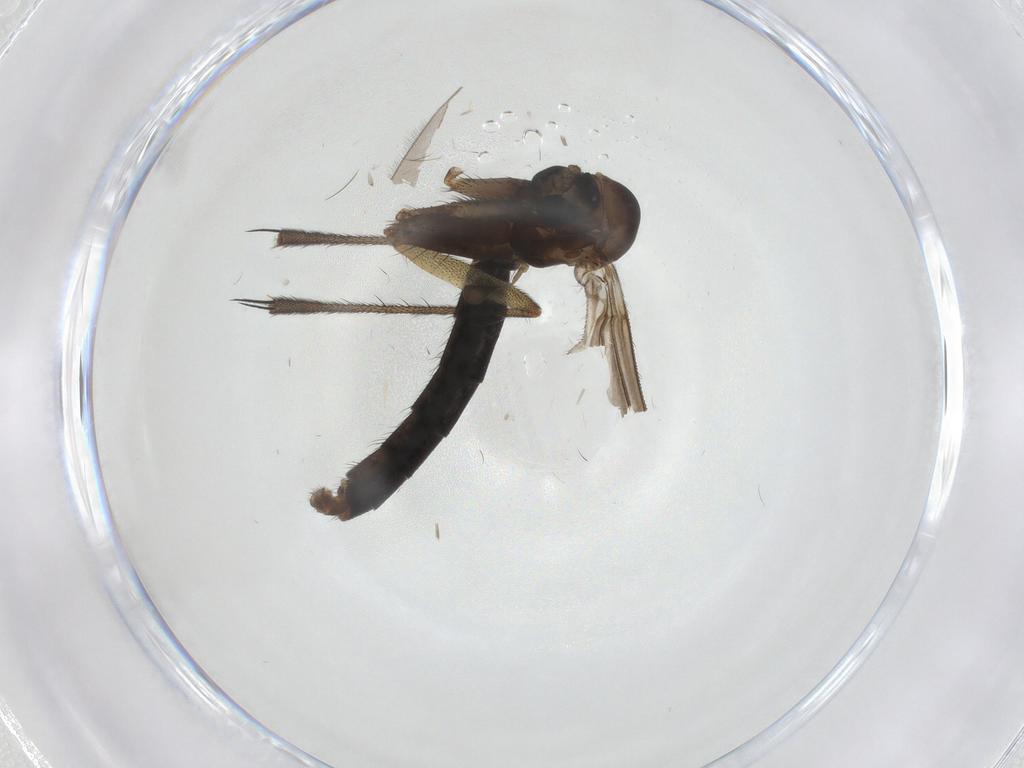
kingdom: Animalia
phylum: Arthropoda
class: Insecta
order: Diptera
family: Ditomyiidae
